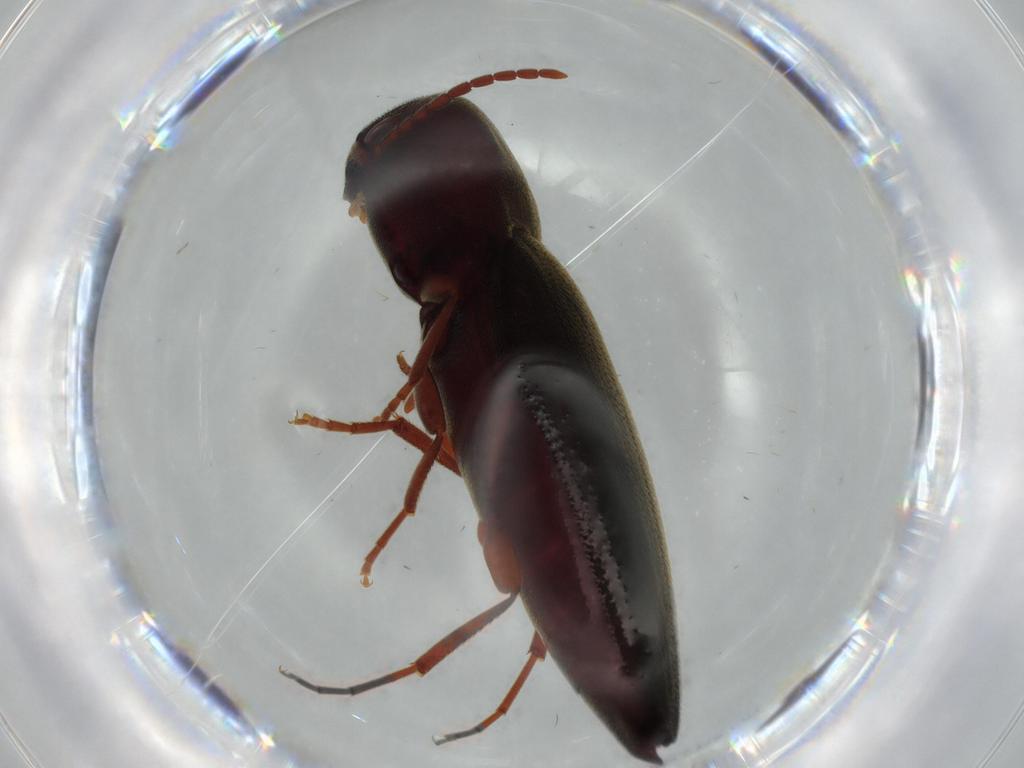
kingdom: Animalia
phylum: Arthropoda
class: Insecta
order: Coleoptera
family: Eucnemidae
